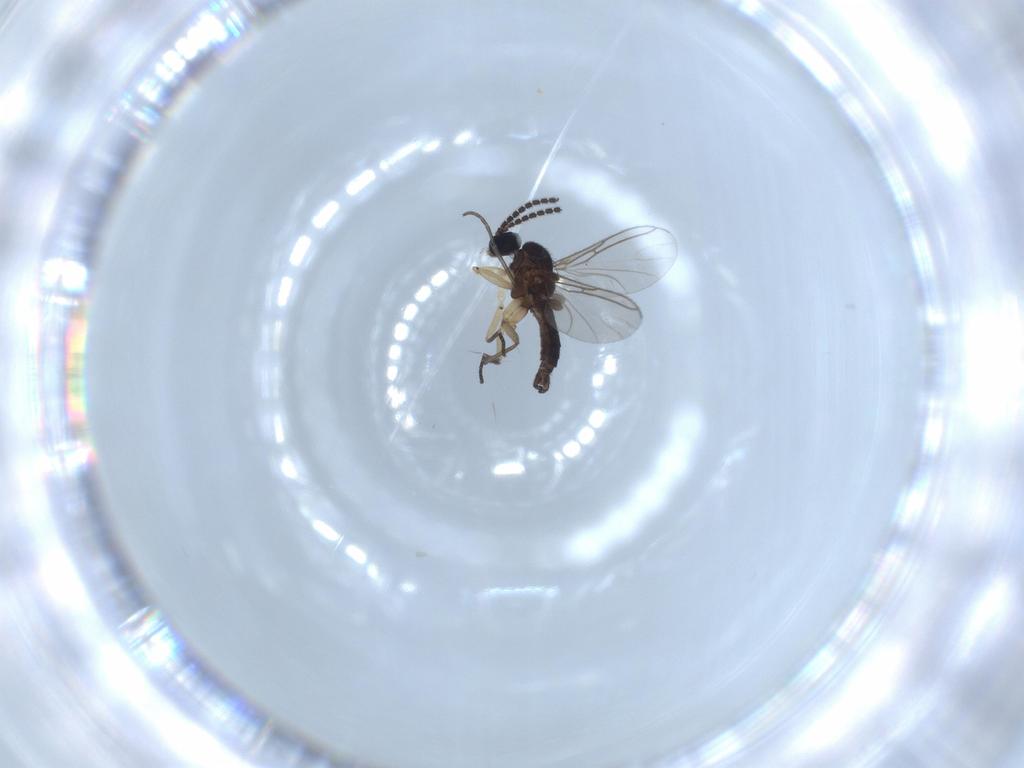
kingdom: Animalia
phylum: Arthropoda
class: Insecta
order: Diptera
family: Sciaridae
